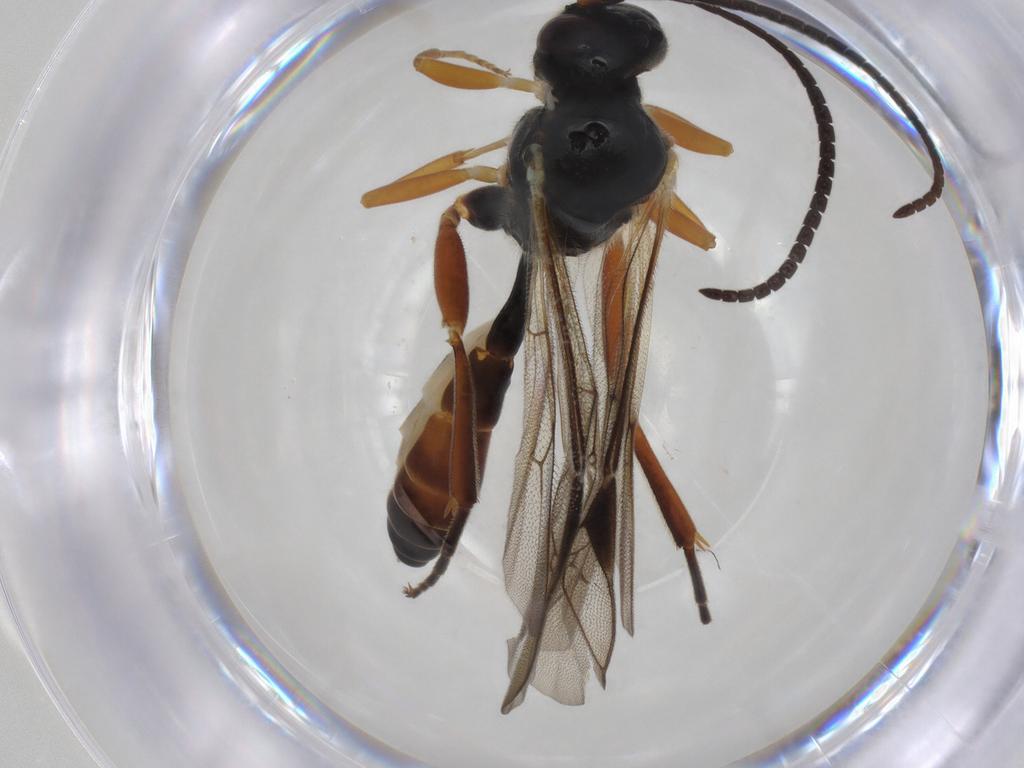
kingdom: Animalia
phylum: Arthropoda
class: Insecta
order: Hymenoptera
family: Ichneumonidae
